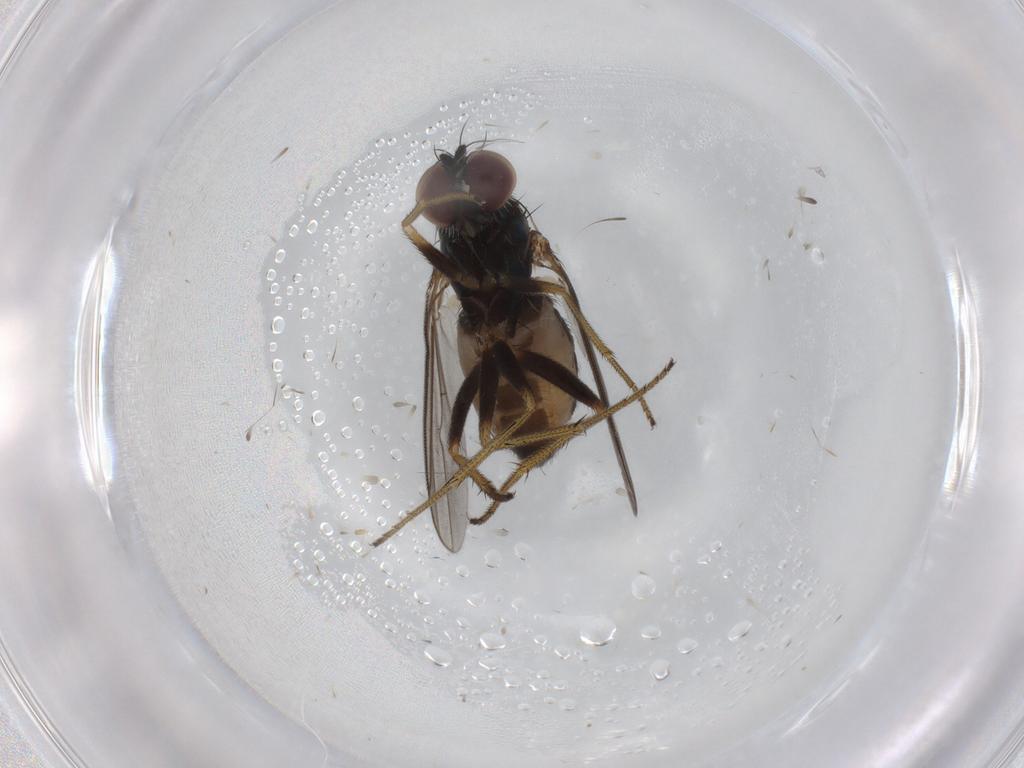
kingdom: Animalia
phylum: Arthropoda
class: Insecta
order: Diptera
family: Cecidomyiidae
